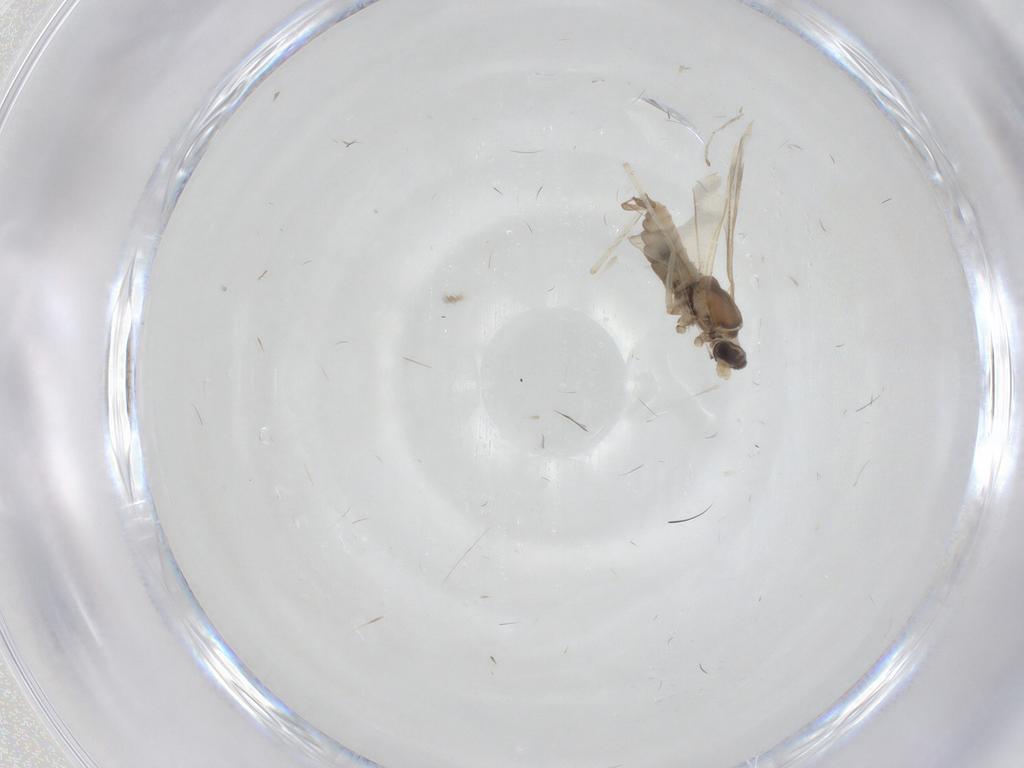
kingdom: Animalia
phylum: Arthropoda
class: Insecta
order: Diptera
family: Cecidomyiidae
